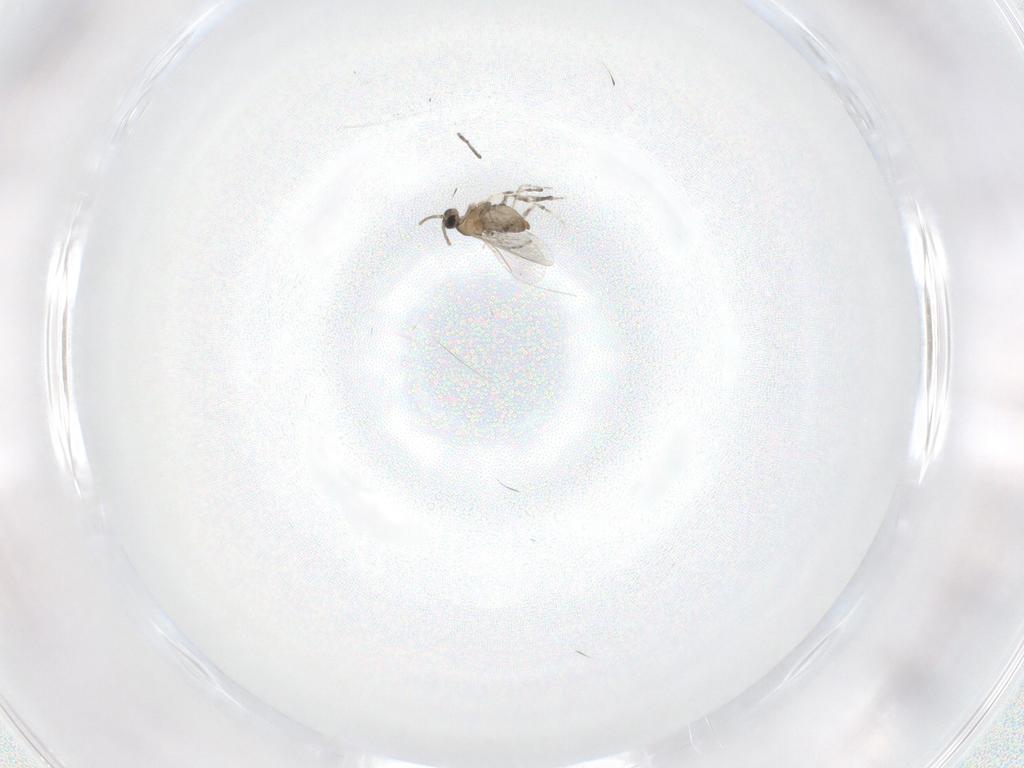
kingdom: Animalia
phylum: Arthropoda
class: Insecta
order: Diptera
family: Cecidomyiidae
